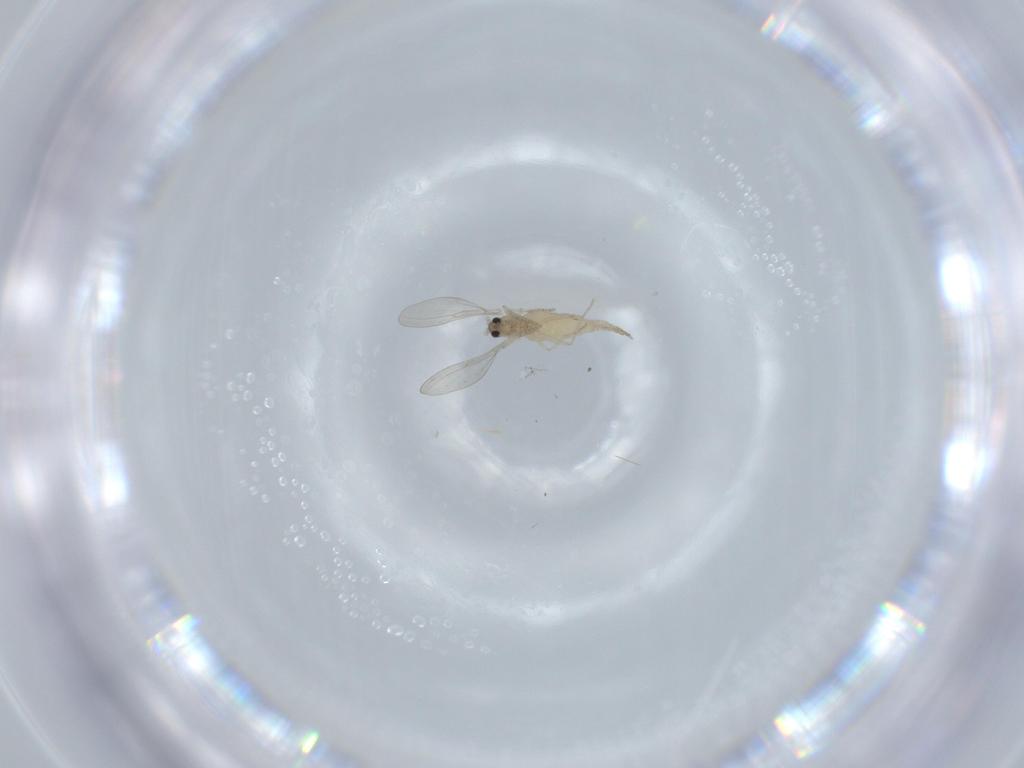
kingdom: Animalia
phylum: Arthropoda
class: Insecta
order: Diptera
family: Cecidomyiidae
